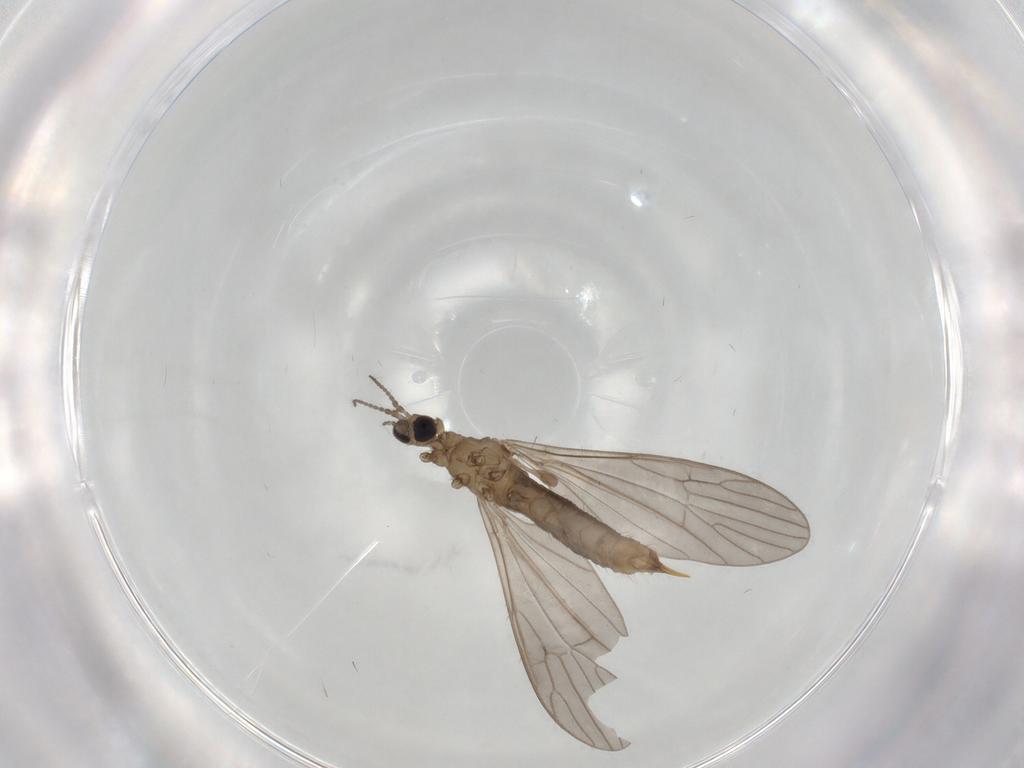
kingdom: Animalia
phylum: Arthropoda
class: Insecta
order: Diptera
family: Limoniidae
